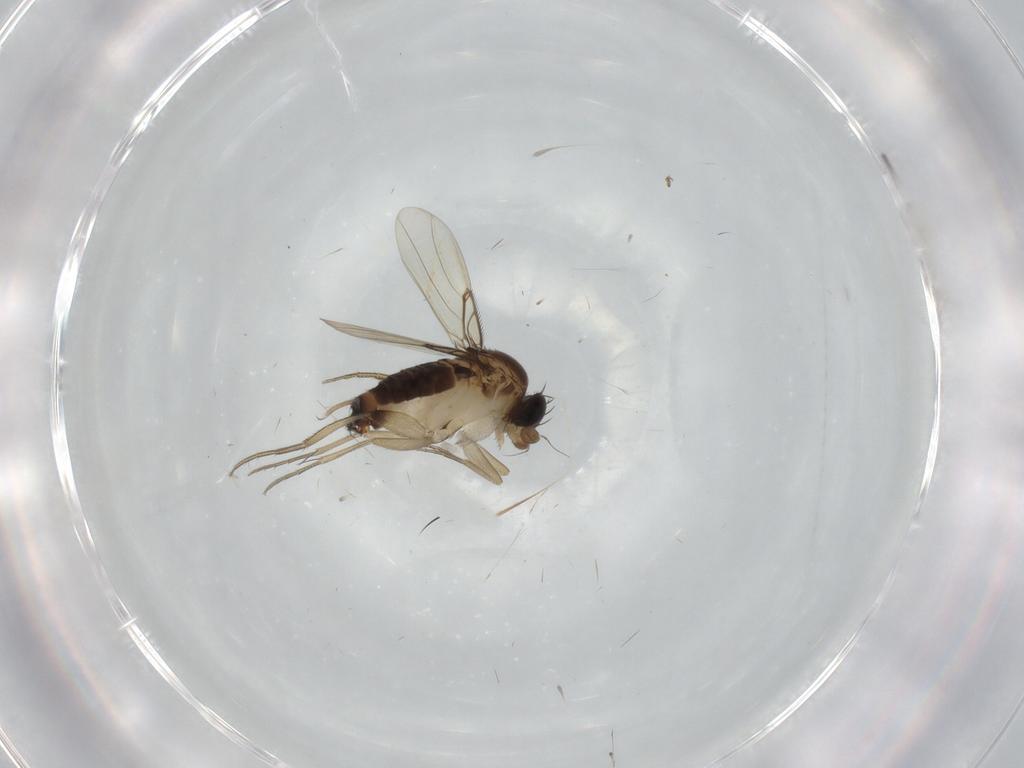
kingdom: Animalia
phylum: Arthropoda
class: Insecta
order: Diptera
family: Phoridae
